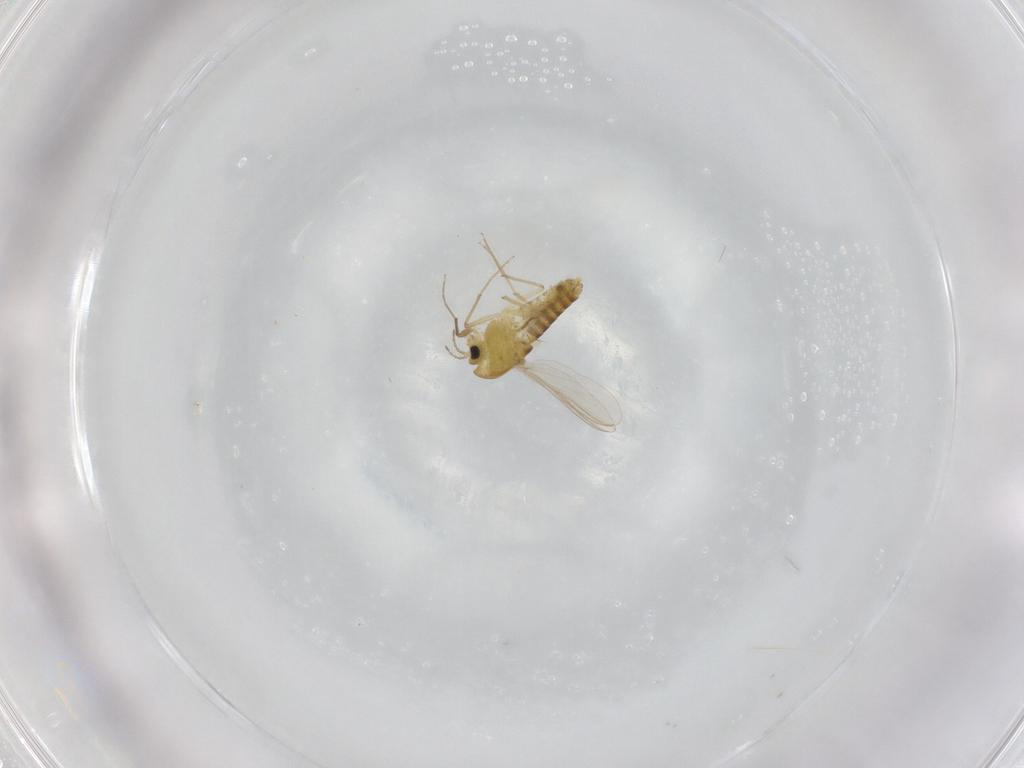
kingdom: Animalia
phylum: Arthropoda
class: Insecta
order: Diptera
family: Chironomidae
